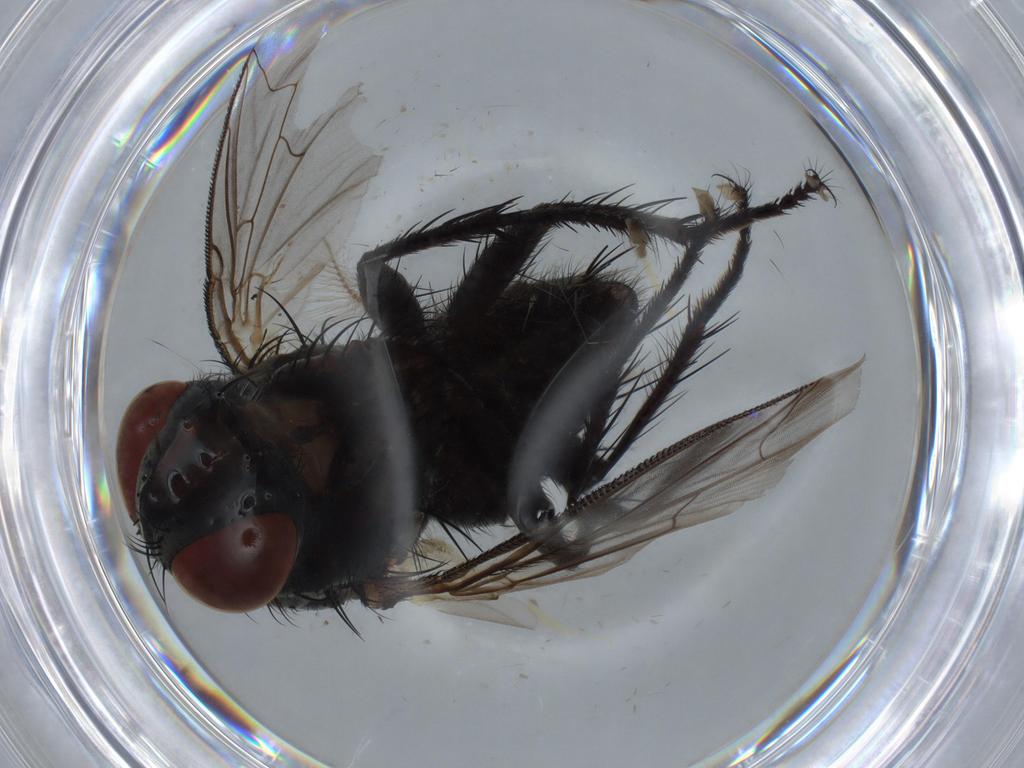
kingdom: Animalia
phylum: Arthropoda
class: Insecta
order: Diptera
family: Sarcophagidae
